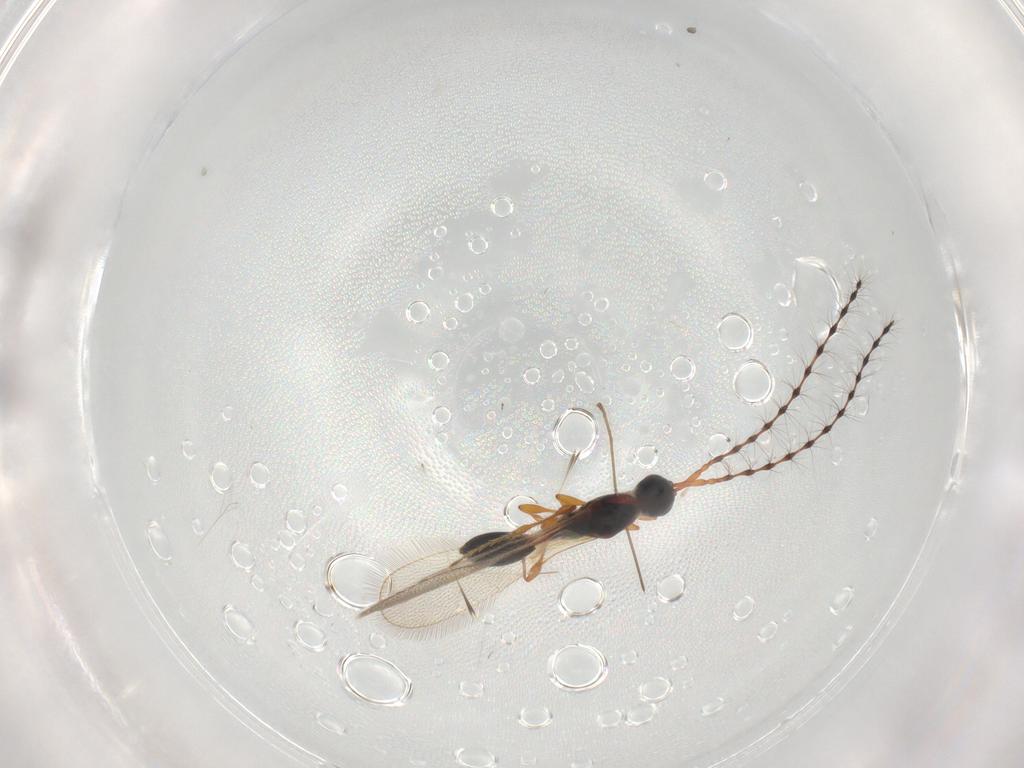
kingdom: Animalia
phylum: Arthropoda
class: Insecta
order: Hymenoptera
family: Diapriidae
